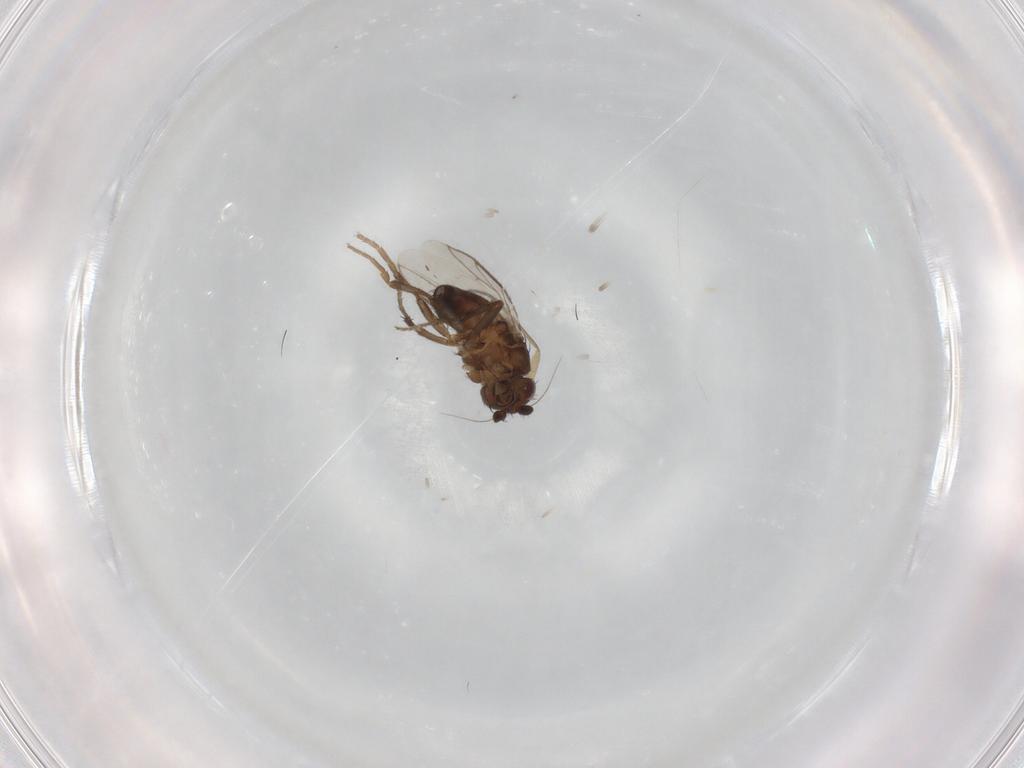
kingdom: Animalia
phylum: Arthropoda
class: Insecta
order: Diptera
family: Sphaeroceridae
